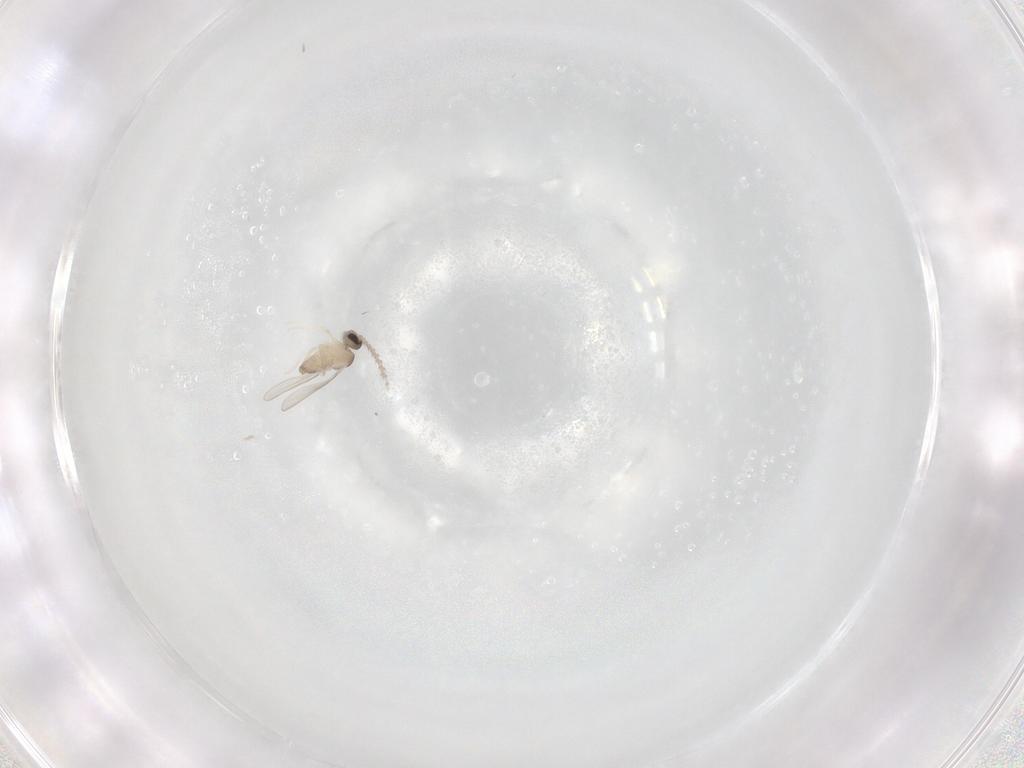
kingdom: Animalia
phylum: Arthropoda
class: Insecta
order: Diptera
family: Cecidomyiidae
